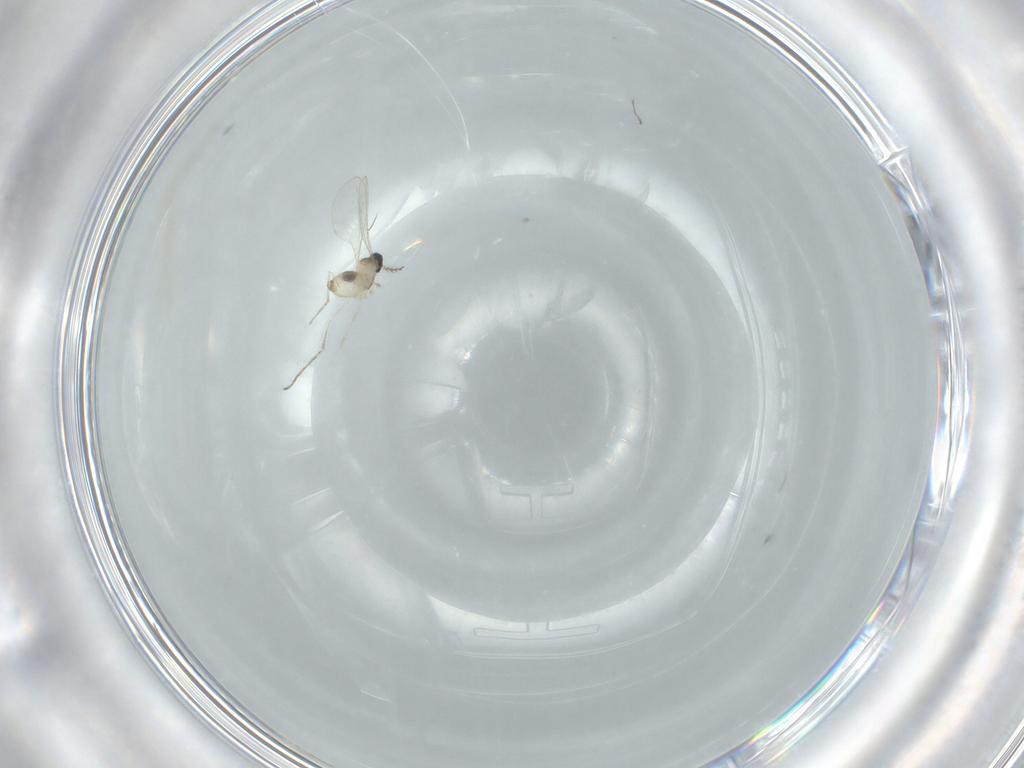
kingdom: Animalia
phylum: Arthropoda
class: Insecta
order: Diptera
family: Cecidomyiidae
